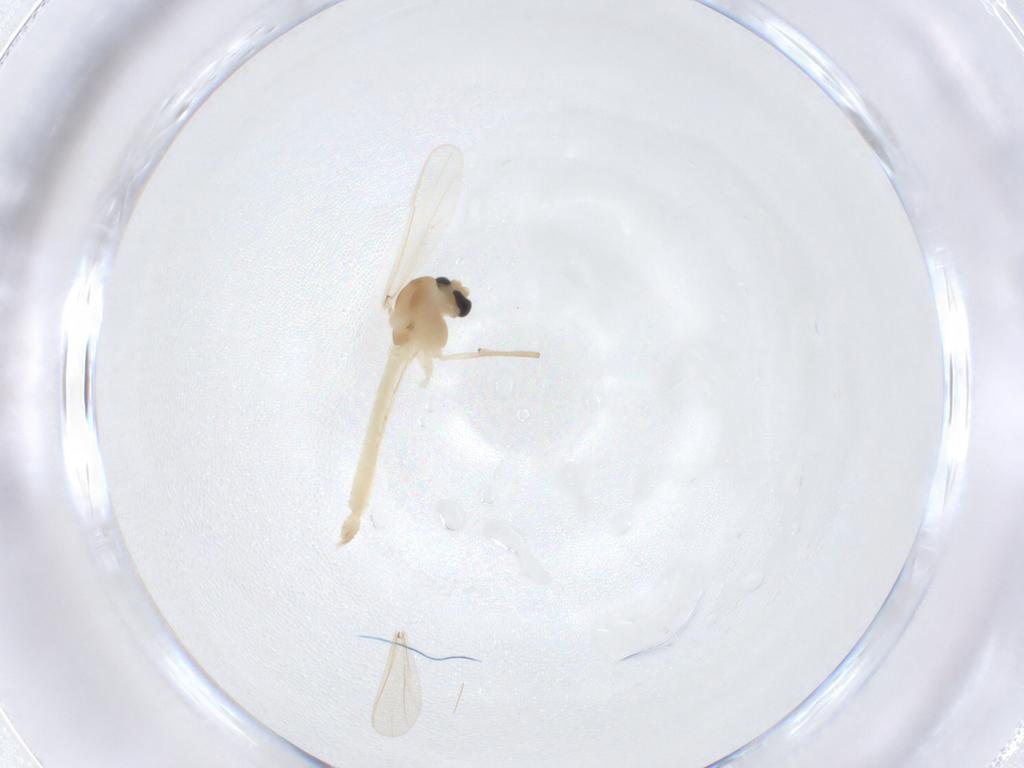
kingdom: Animalia
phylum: Arthropoda
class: Insecta
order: Diptera
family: Chironomidae
